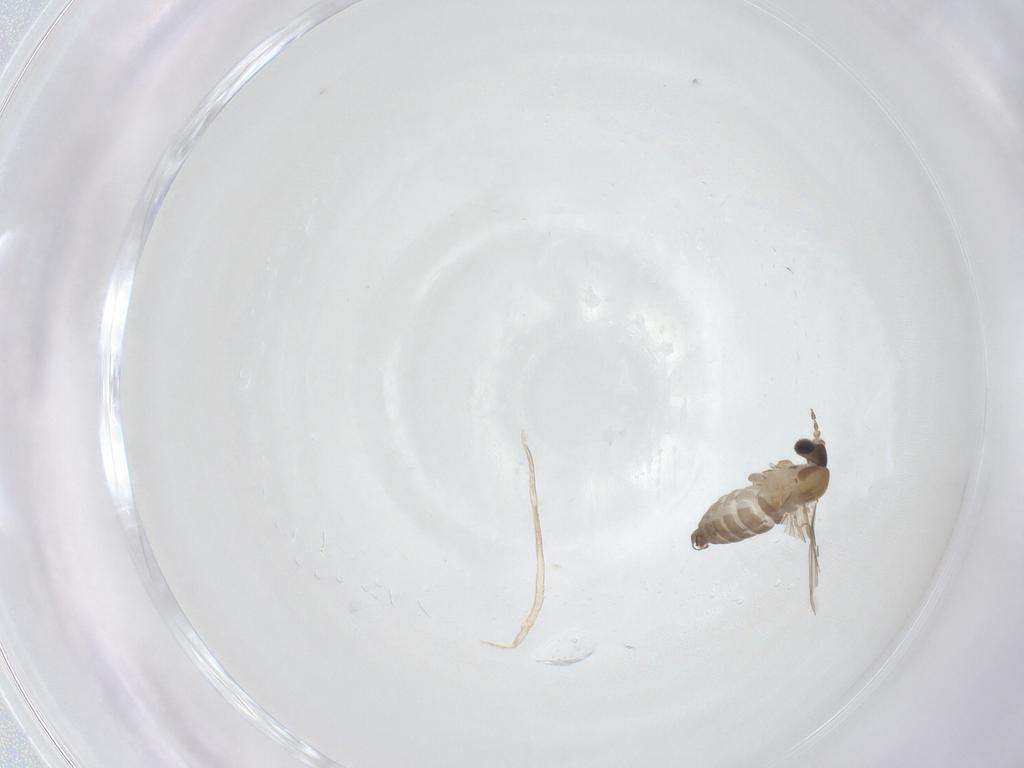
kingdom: Animalia
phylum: Arthropoda
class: Insecta
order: Diptera
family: Psychodidae
